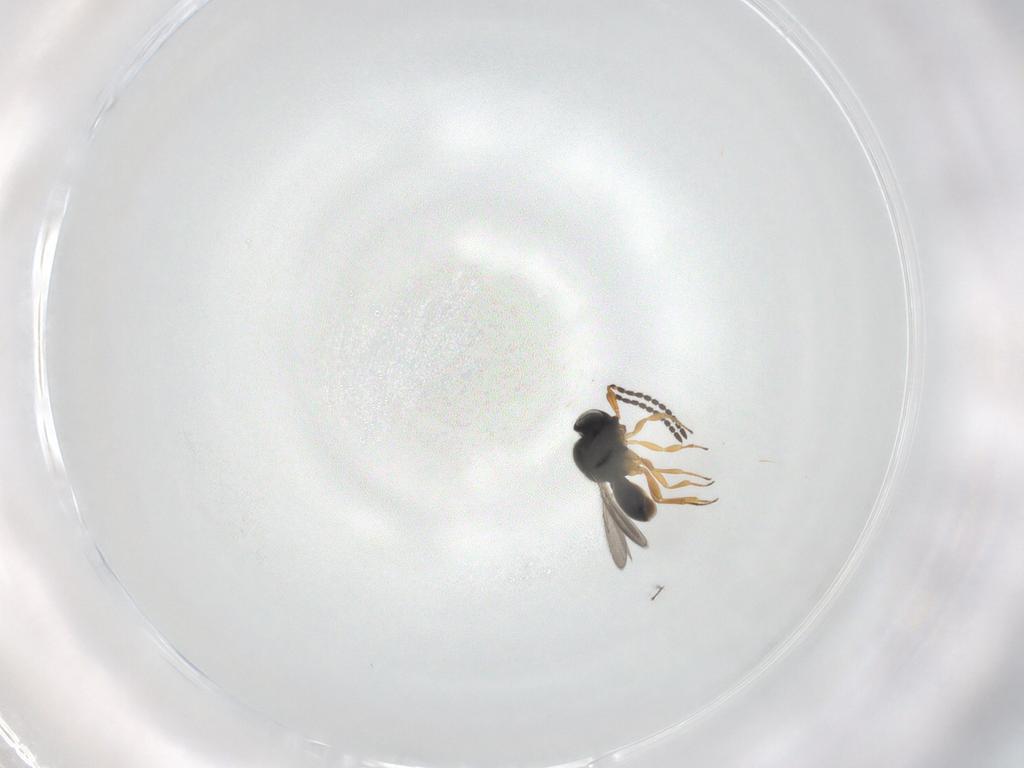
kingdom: Animalia
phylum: Arthropoda
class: Insecta
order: Hymenoptera
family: Scelionidae
